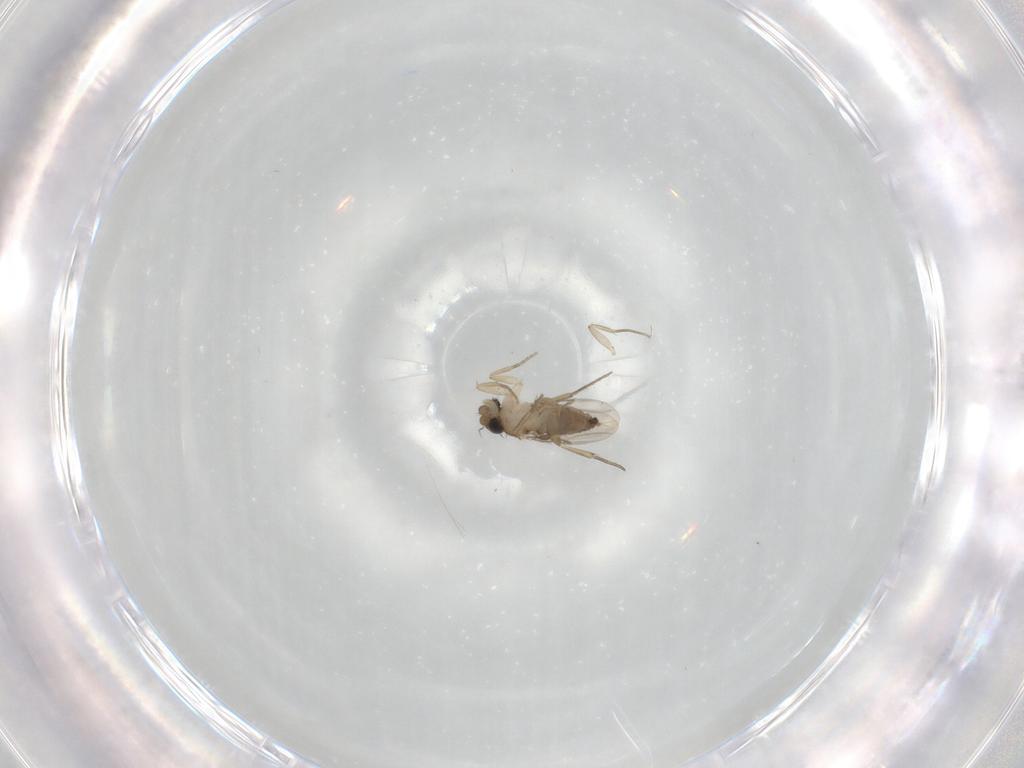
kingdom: Animalia
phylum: Arthropoda
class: Insecta
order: Diptera
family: Phoridae
